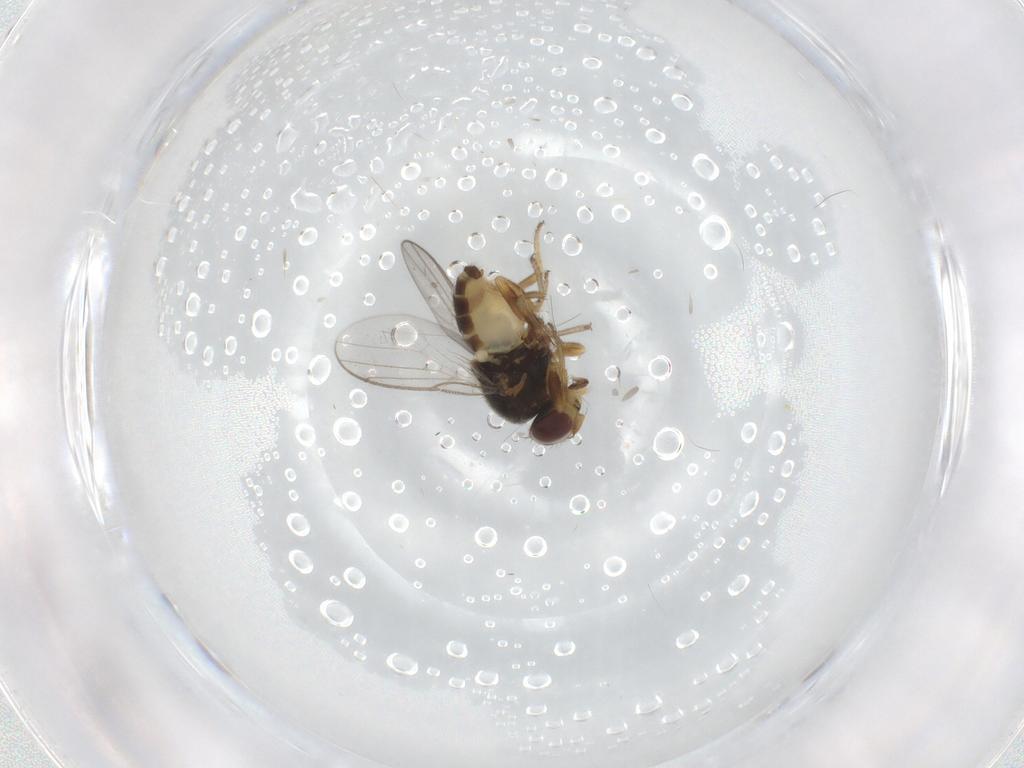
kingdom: Animalia
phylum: Arthropoda
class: Insecta
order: Diptera
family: Chloropidae
